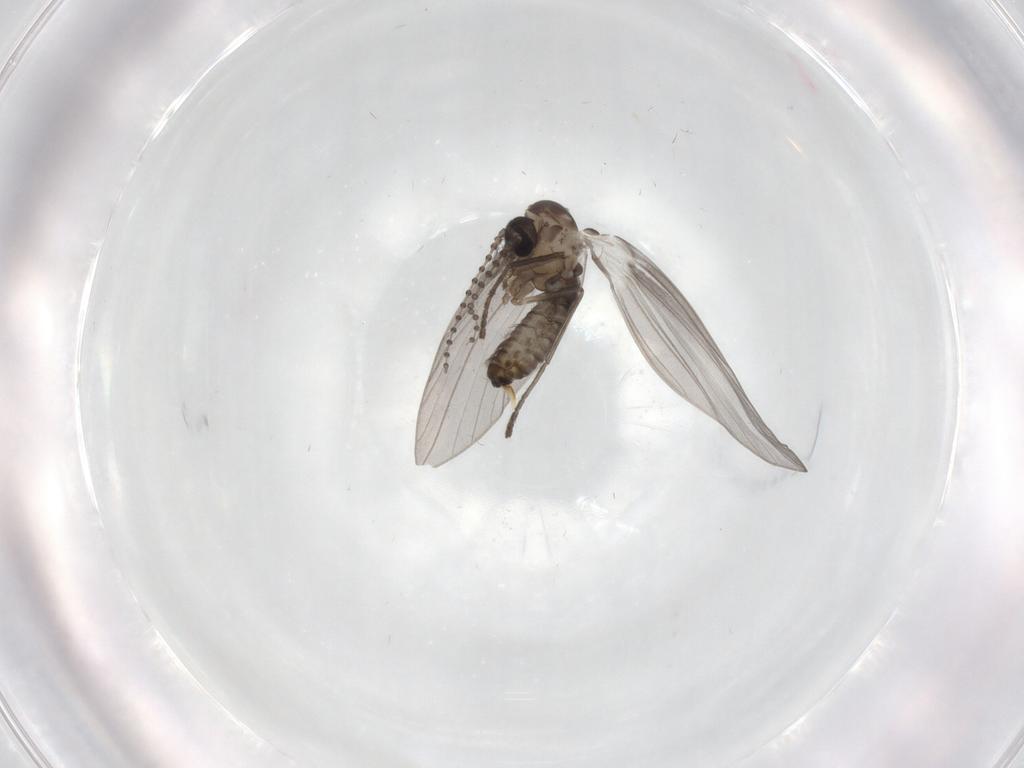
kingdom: Animalia
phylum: Arthropoda
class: Insecta
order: Diptera
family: Psychodidae
